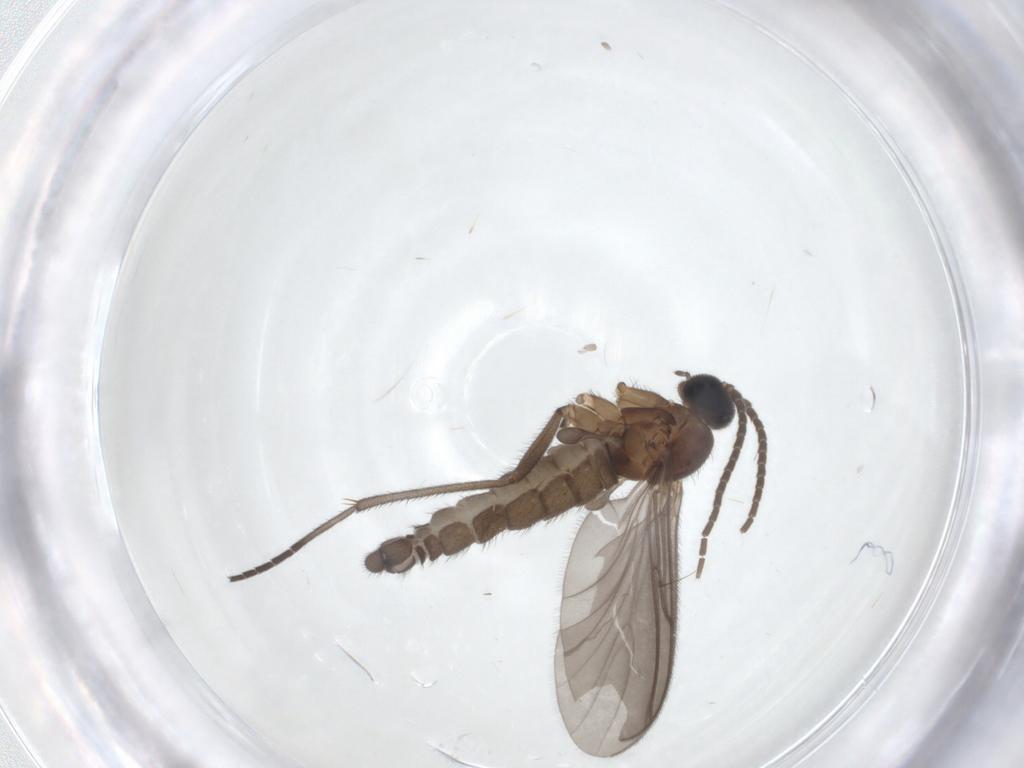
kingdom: Animalia
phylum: Arthropoda
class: Insecta
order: Diptera
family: Cecidomyiidae
